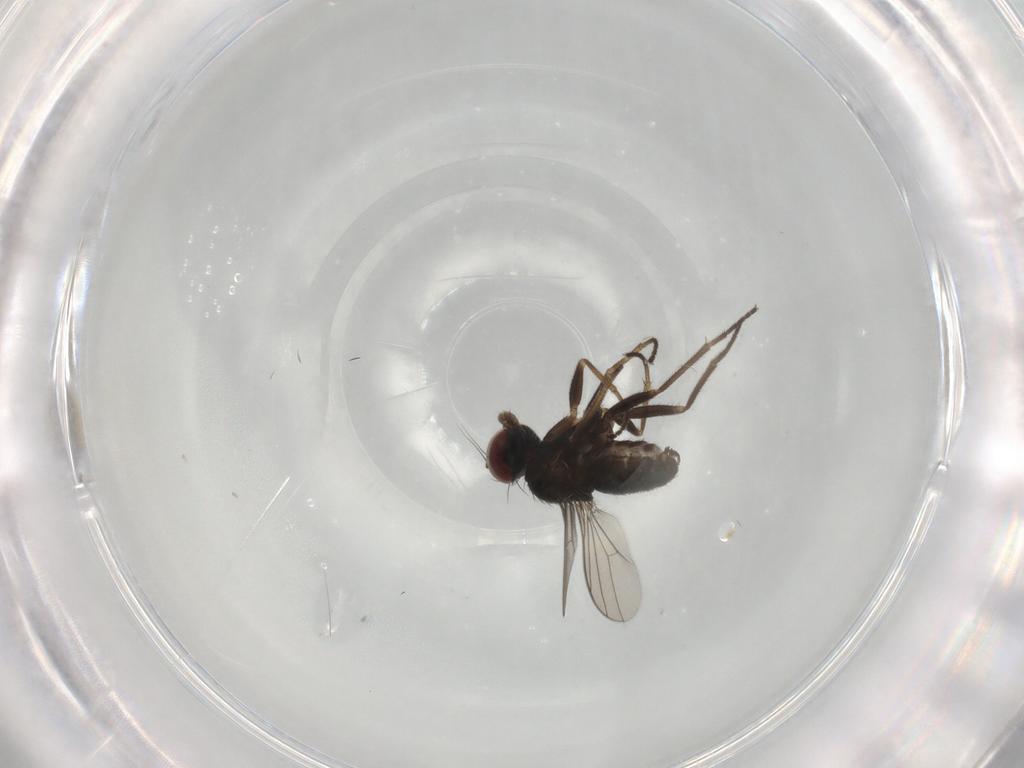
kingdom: Animalia
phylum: Arthropoda
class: Insecta
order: Diptera
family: Dolichopodidae
